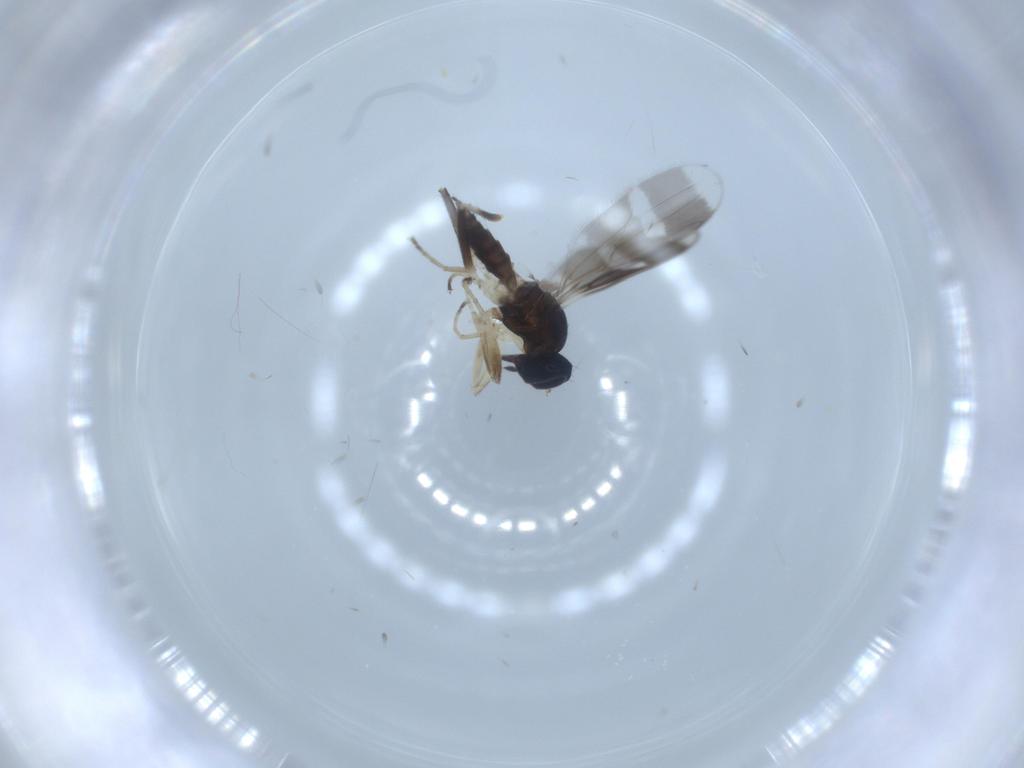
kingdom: Animalia
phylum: Arthropoda
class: Insecta
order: Diptera
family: Hybotidae
